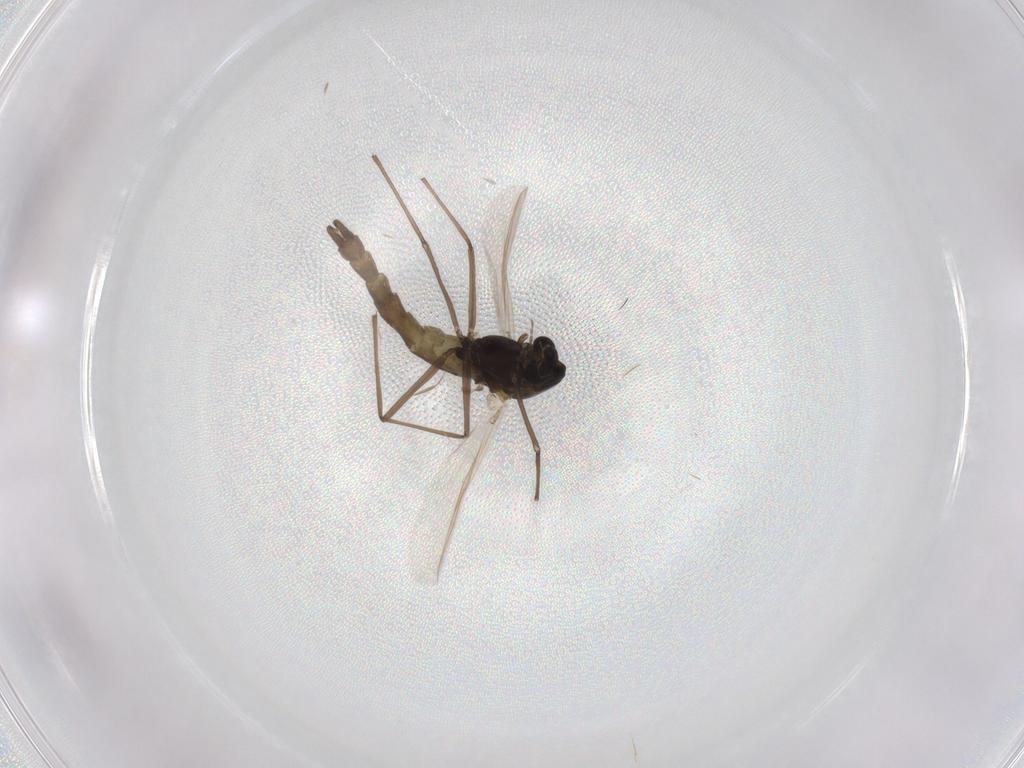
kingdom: Animalia
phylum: Arthropoda
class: Insecta
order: Diptera
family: Chironomidae
